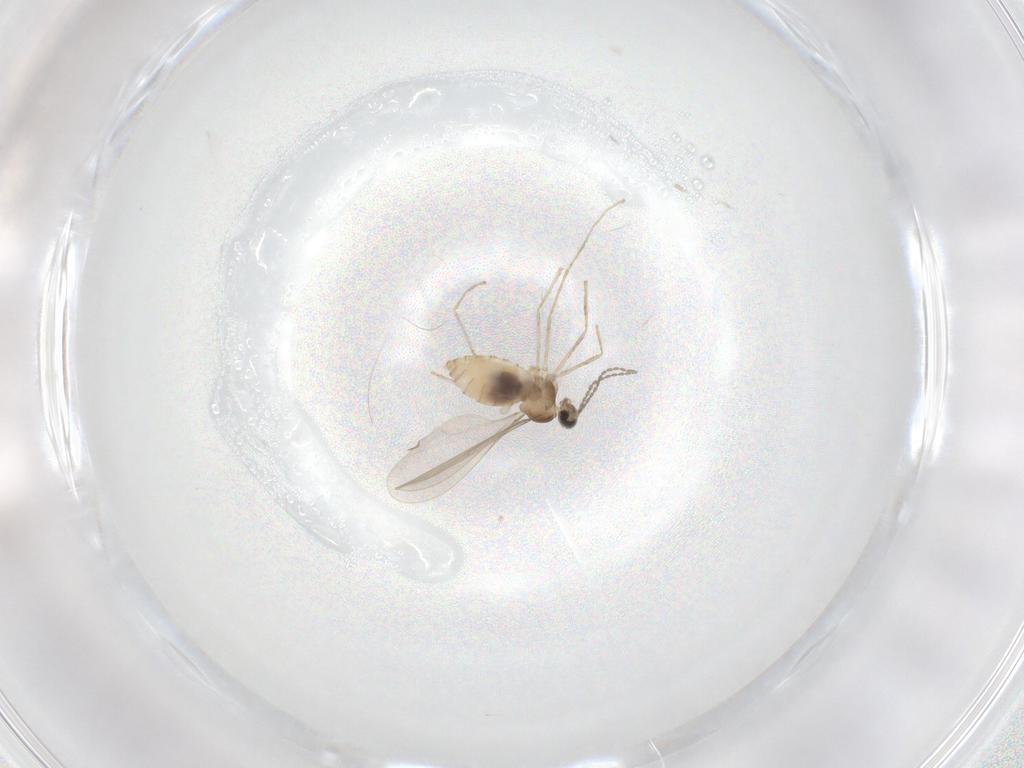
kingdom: Animalia
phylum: Arthropoda
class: Insecta
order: Diptera
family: Cecidomyiidae
